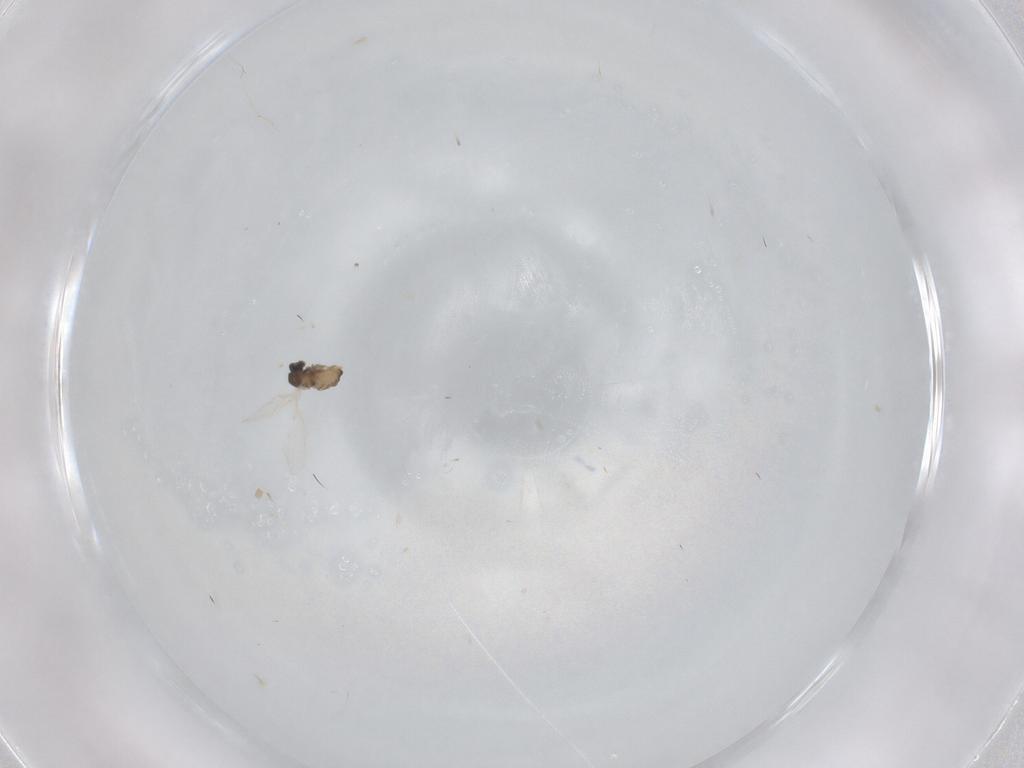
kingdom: Animalia
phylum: Arthropoda
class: Insecta
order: Diptera
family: Cecidomyiidae
